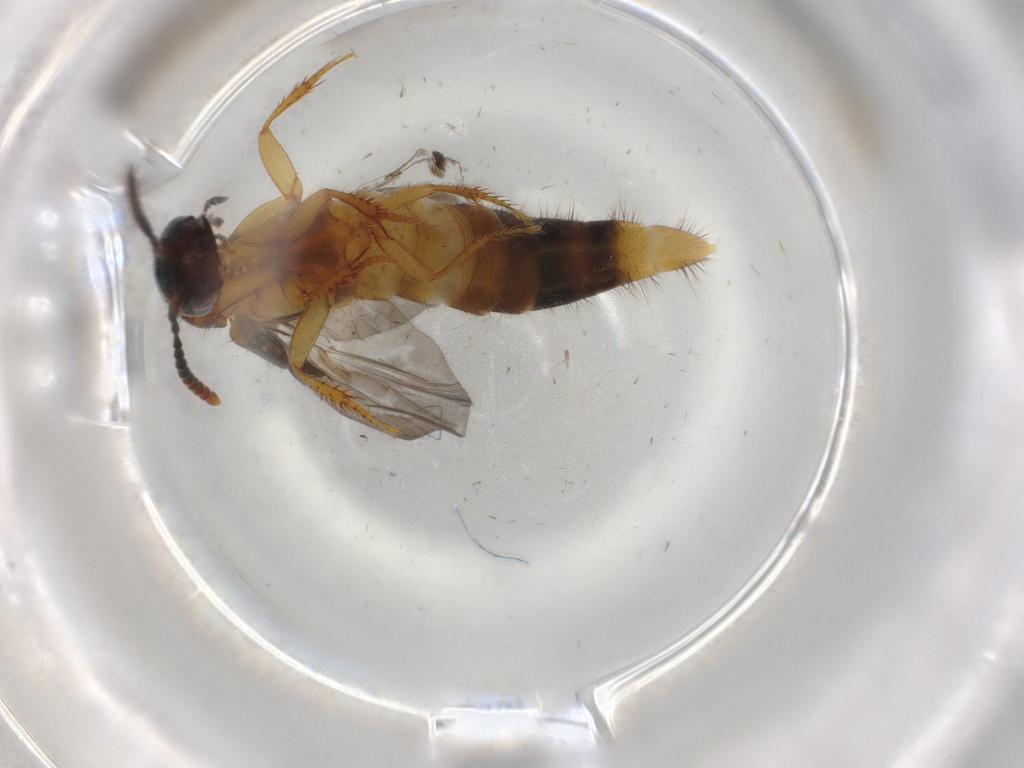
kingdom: Animalia
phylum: Arthropoda
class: Insecta
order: Coleoptera
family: Staphylinidae
